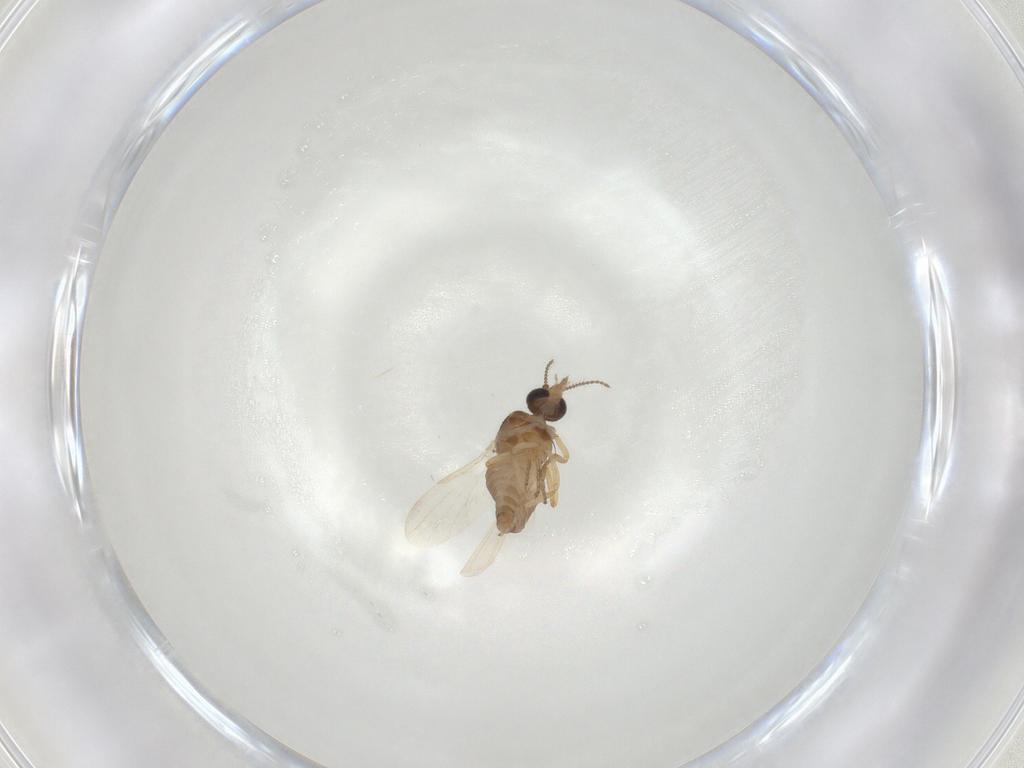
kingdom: Animalia
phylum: Arthropoda
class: Insecta
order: Diptera
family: Ceratopogonidae
